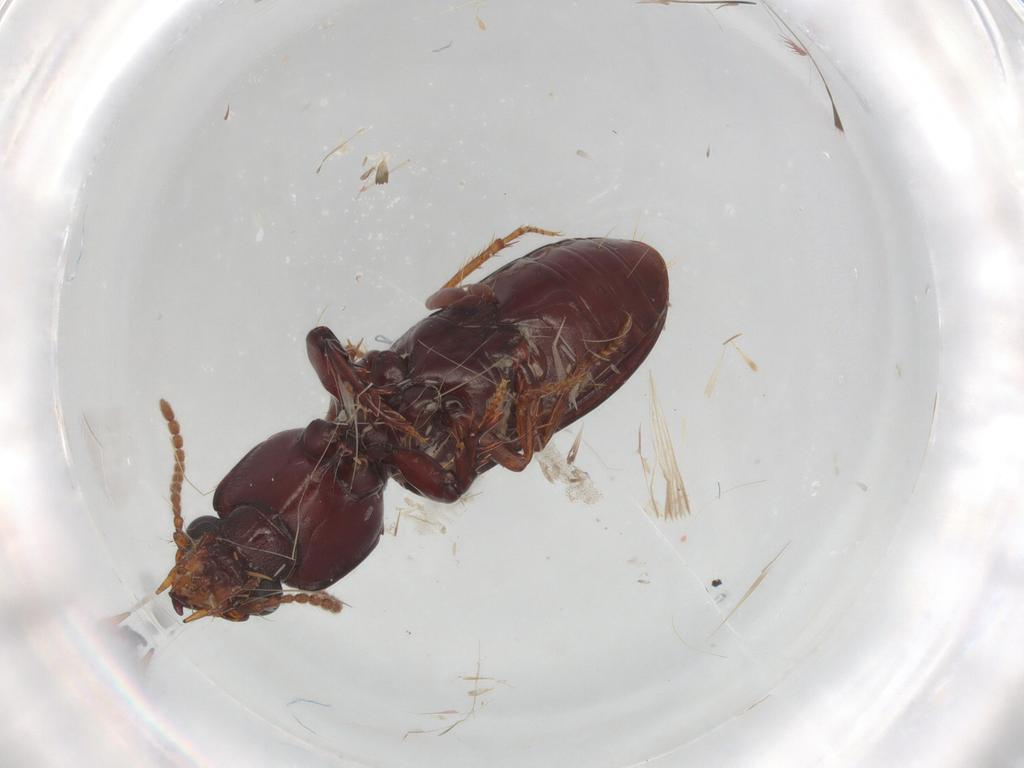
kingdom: Animalia
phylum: Arthropoda
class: Insecta
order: Coleoptera
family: Carabidae
